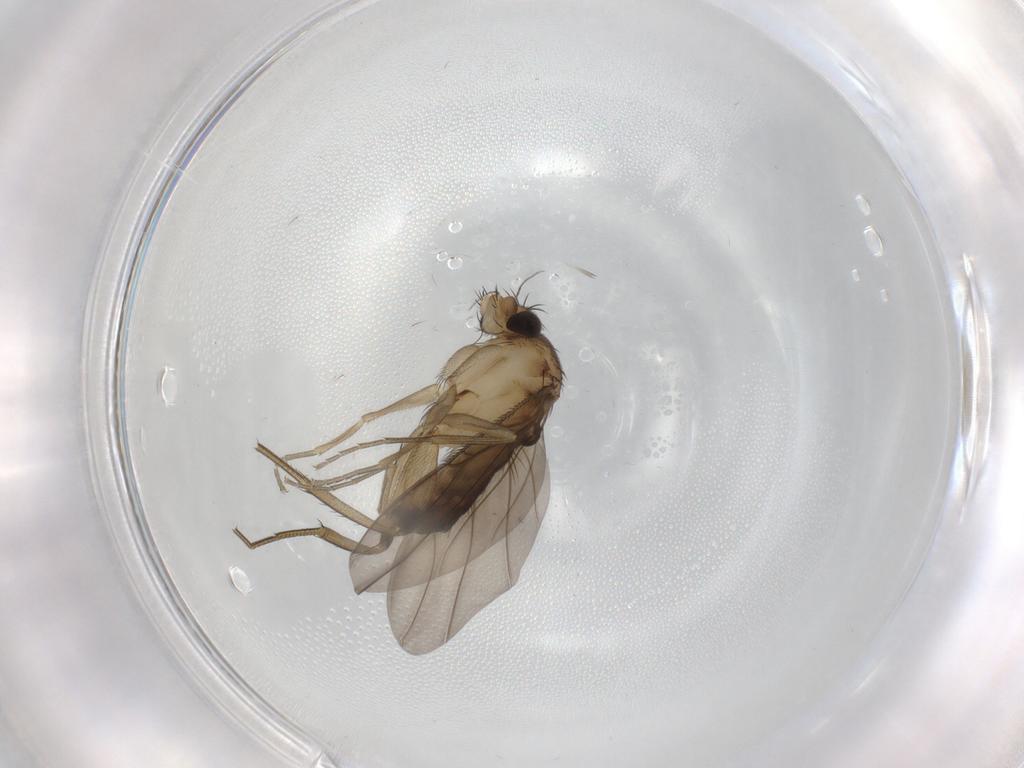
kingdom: Animalia
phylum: Arthropoda
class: Insecta
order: Diptera
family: Phoridae
